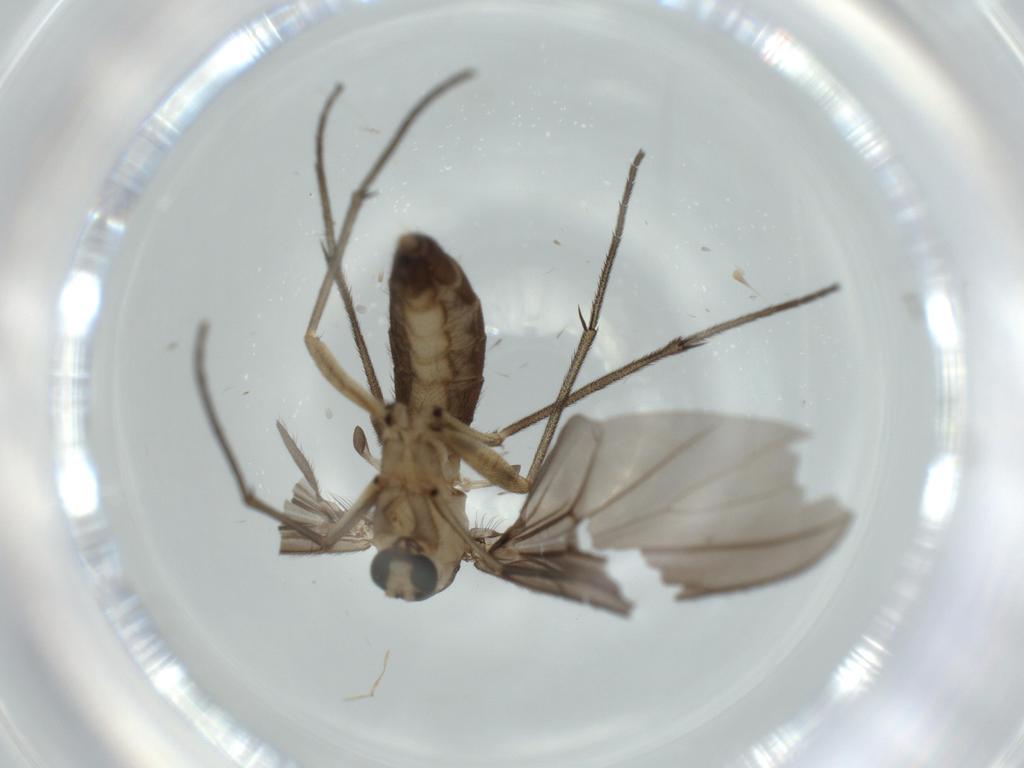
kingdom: Animalia
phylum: Arthropoda
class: Insecta
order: Diptera
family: Diadocidiidae
